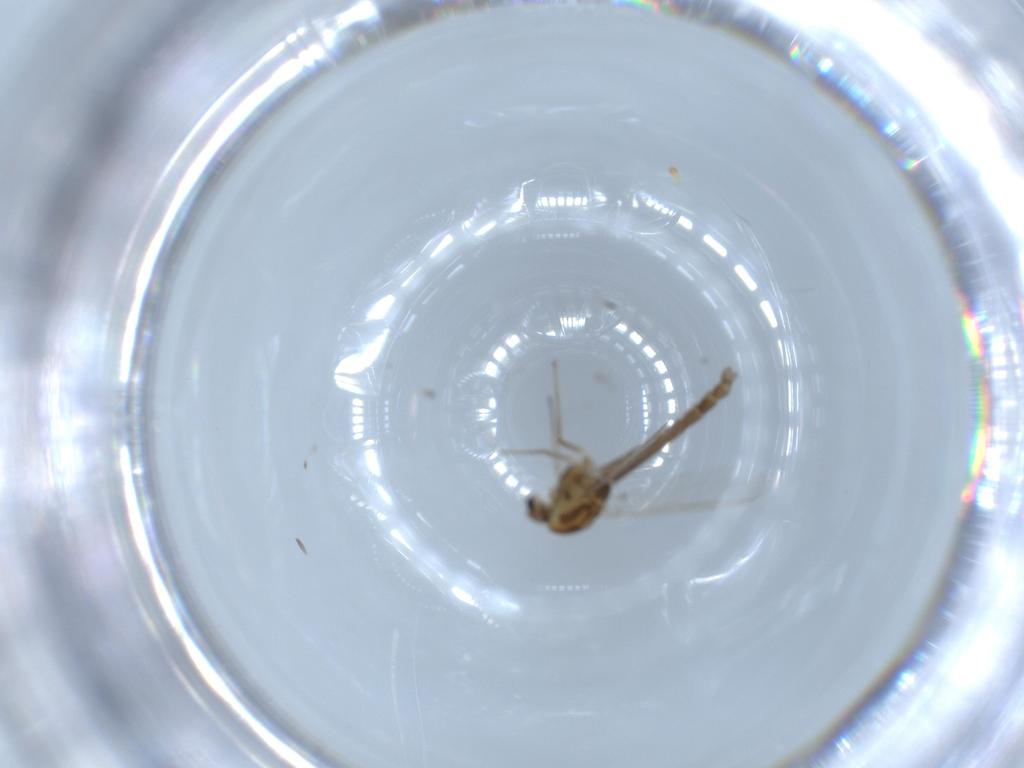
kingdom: Animalia
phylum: Arthropoda
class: Insecta
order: Diptera
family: Chironomidae
